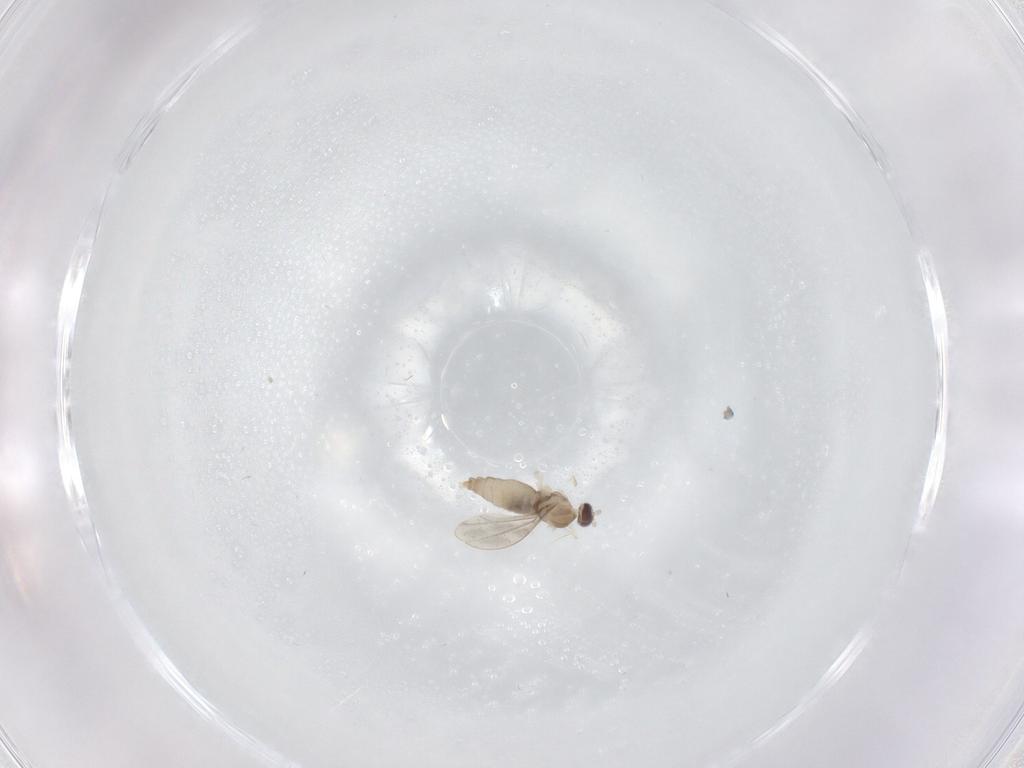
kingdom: Animalia
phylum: Arthropoda
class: Insecta
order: Diptera
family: Cecidomyiidae
